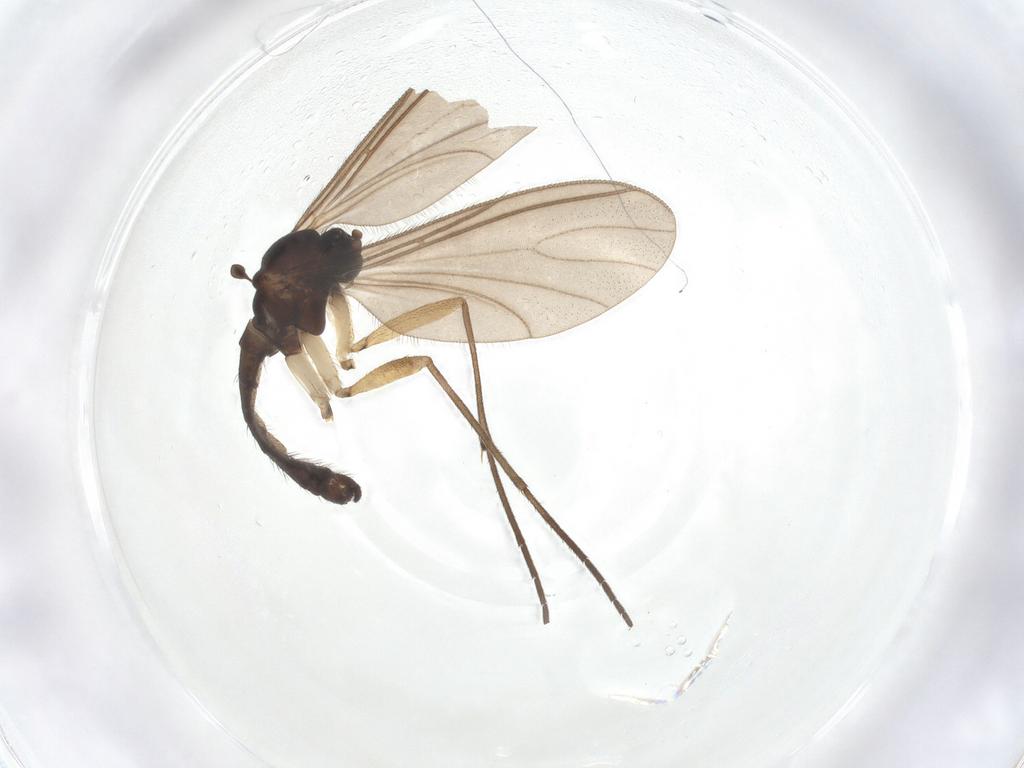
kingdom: Animalia
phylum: Arthropoda
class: Insecta
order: Diptera
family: Sciaridae
